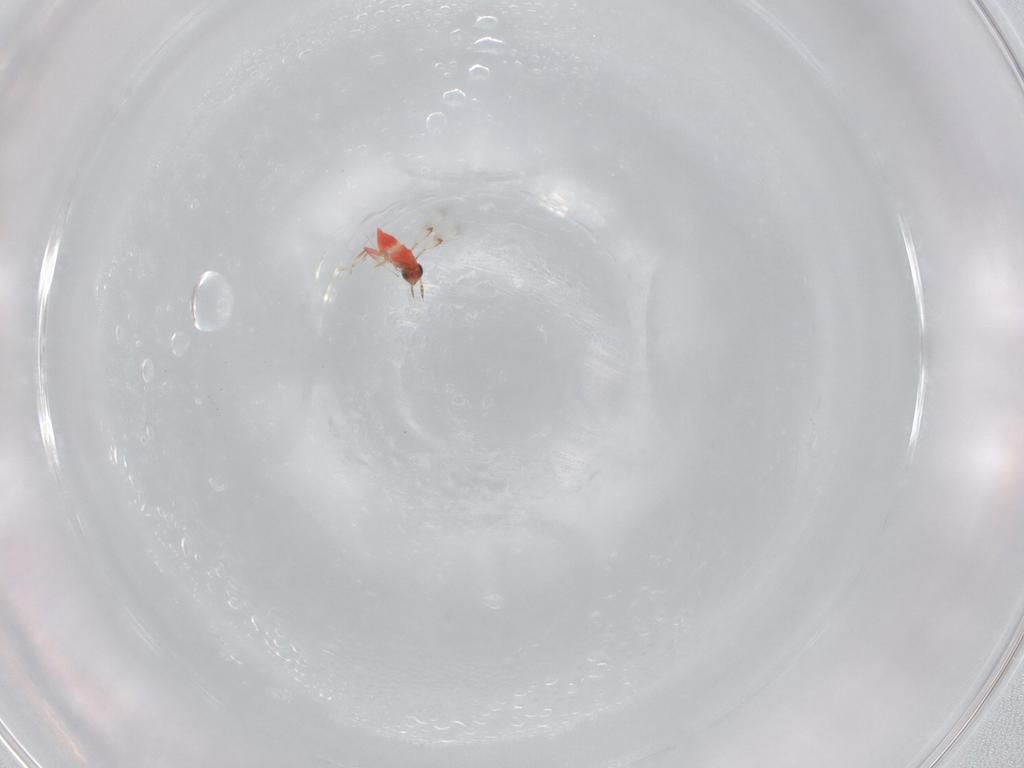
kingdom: Animalia
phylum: Arthropoda
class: Insecta
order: Hymenoptera
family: Trichogrammatidae
